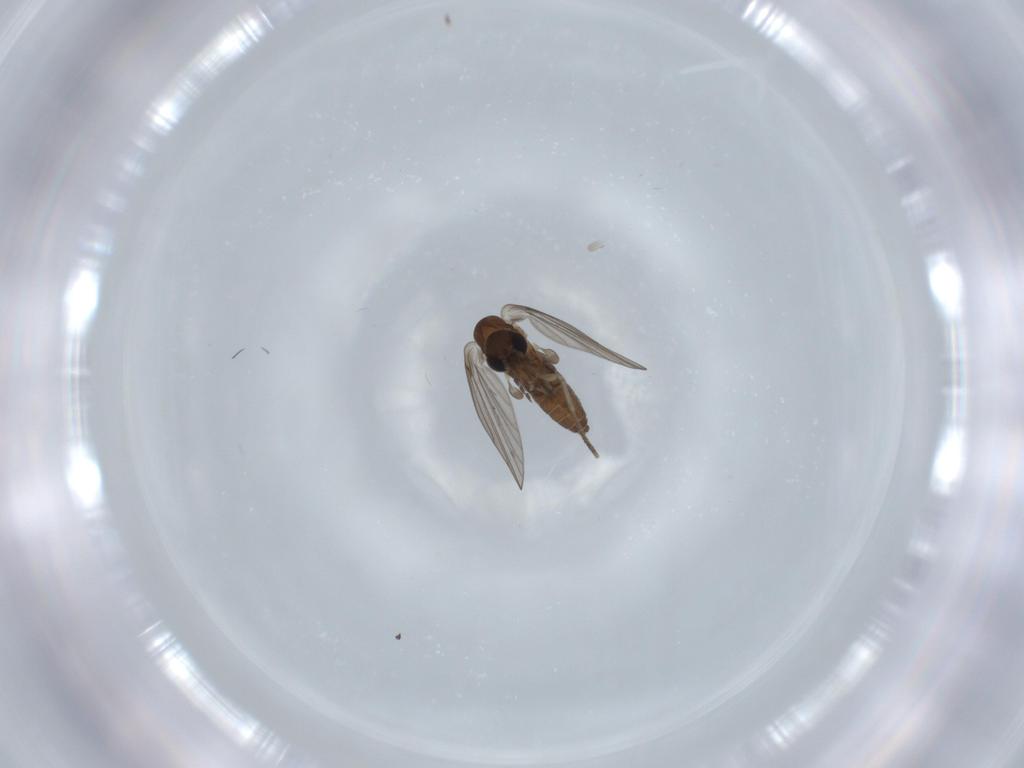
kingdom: Animalia
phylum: Arthropoda
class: Insecta
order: Diptera
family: Psychodidae
